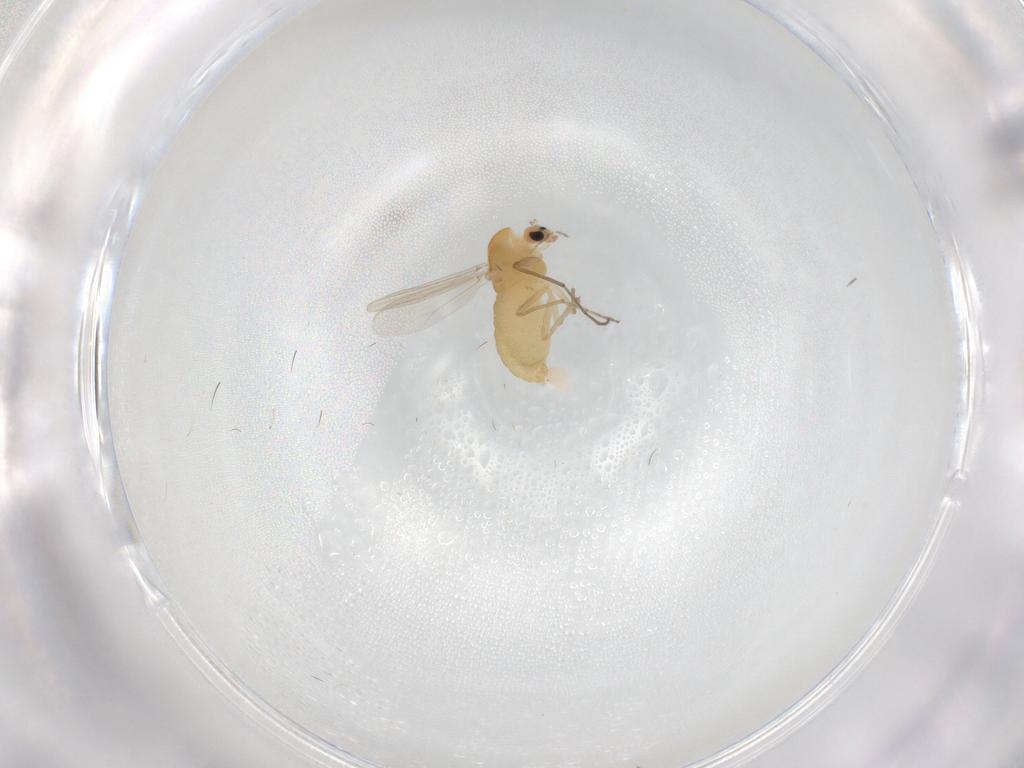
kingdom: Animalia
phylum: Arthropoda
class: Insecta
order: Diptera
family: Chironomidae
